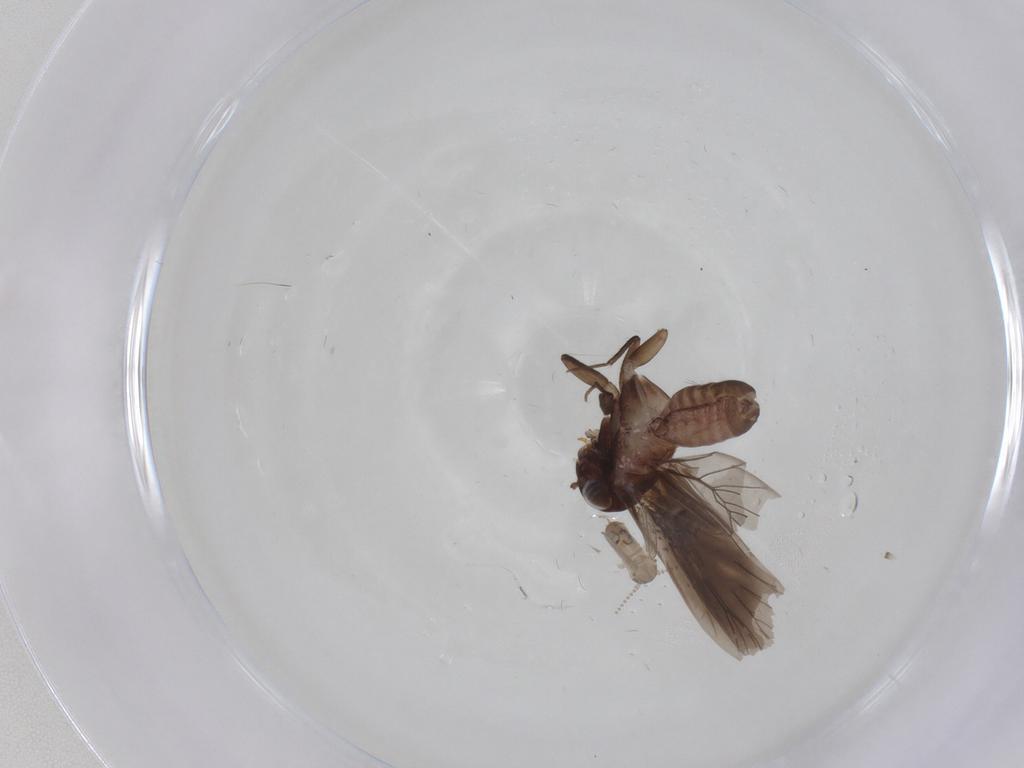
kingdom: Animalia
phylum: Arthropoda
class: Insecta
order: Diptera
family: Psychodidae
